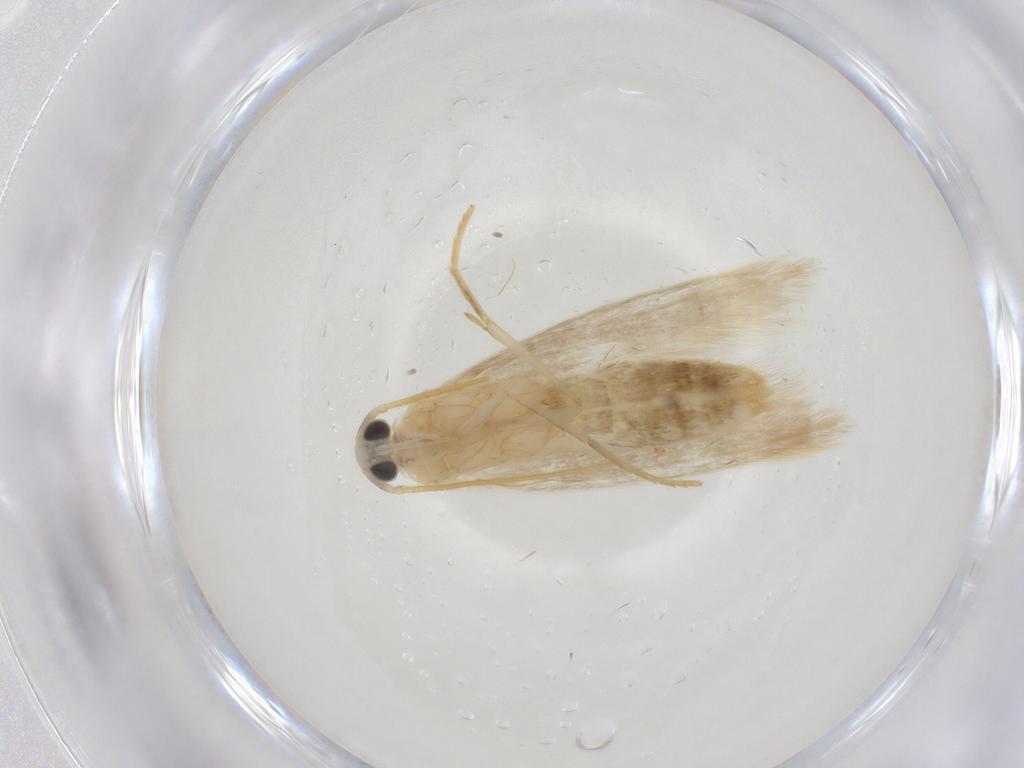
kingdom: Animalia
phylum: Arthropoda
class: Insecta
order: Lepidoptera
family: Coleophoridae
